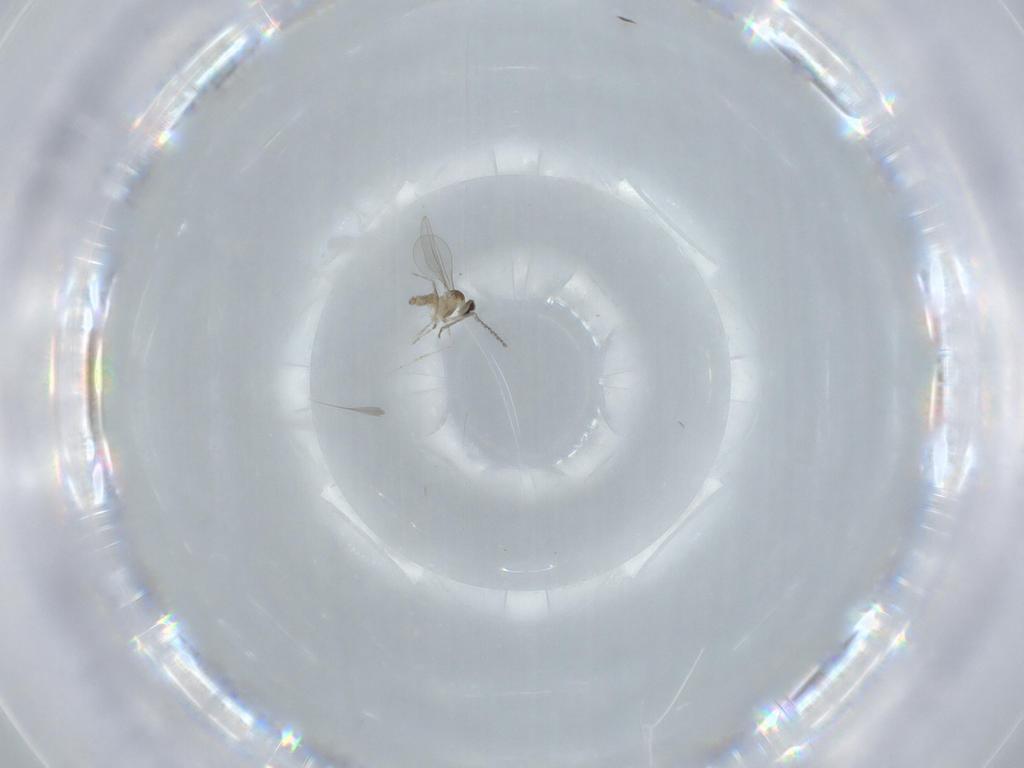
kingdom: Animalia
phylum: Arthropoda
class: Insecta
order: Diptera
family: Cecidomyiidae
